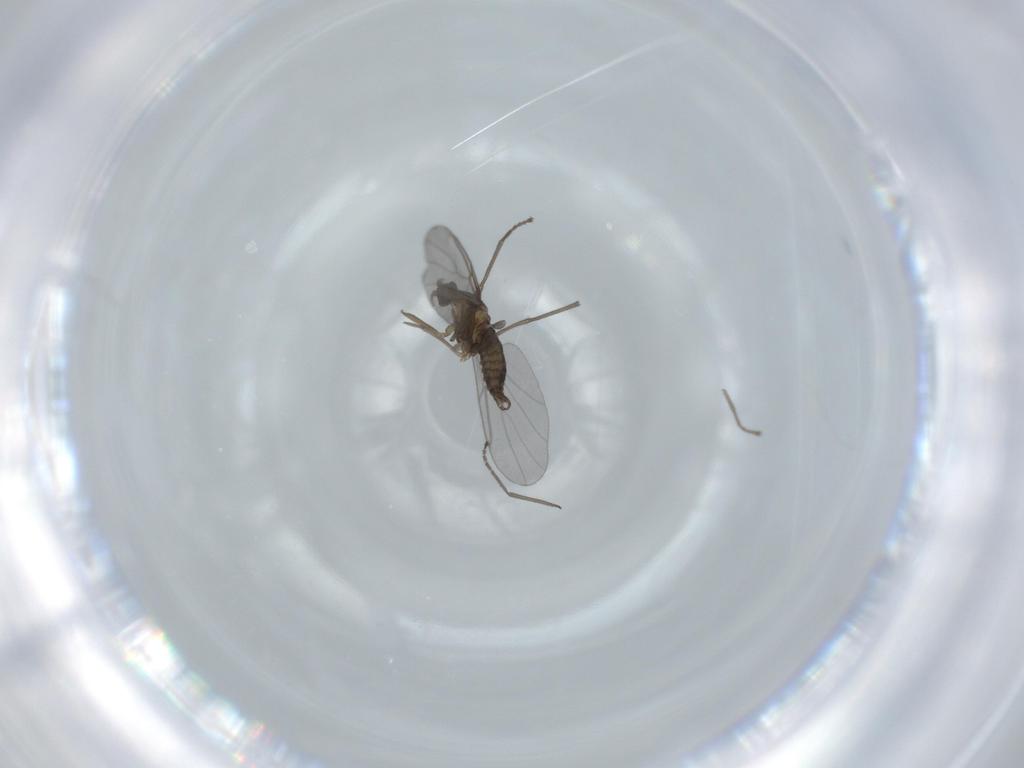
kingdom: Animalia
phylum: Arthropoda
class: Insecta
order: Diptera
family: Cecidomyiidae
